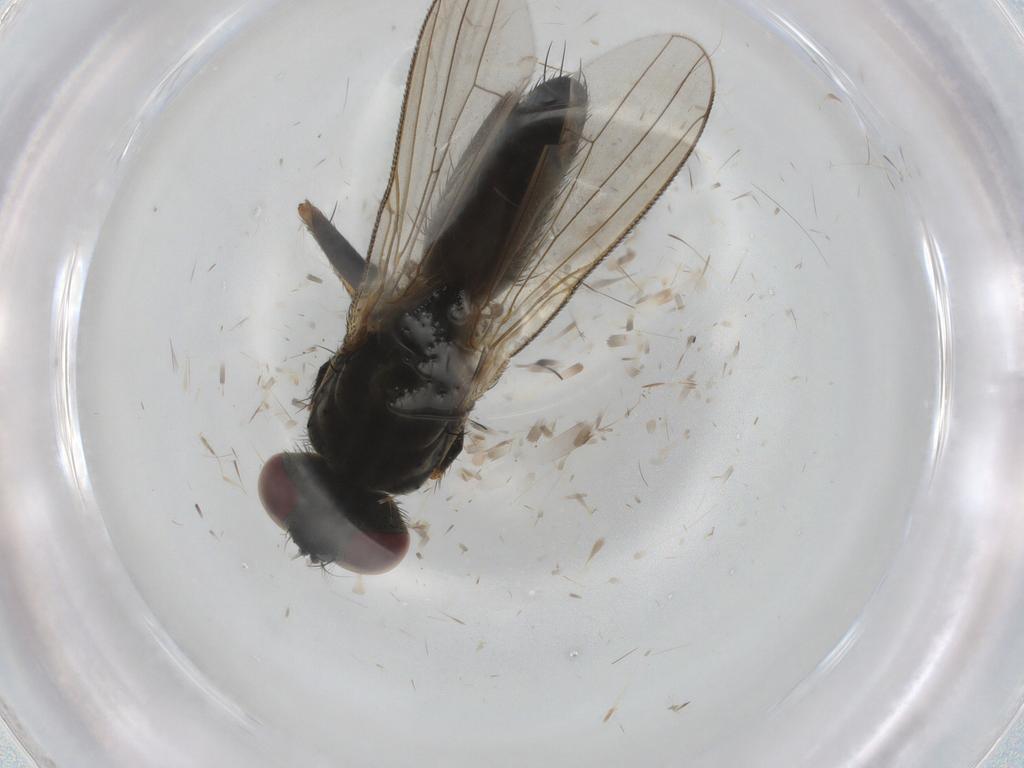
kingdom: Animalia
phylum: Arthropoda
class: Insecta
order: Diptera
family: Muscidae
